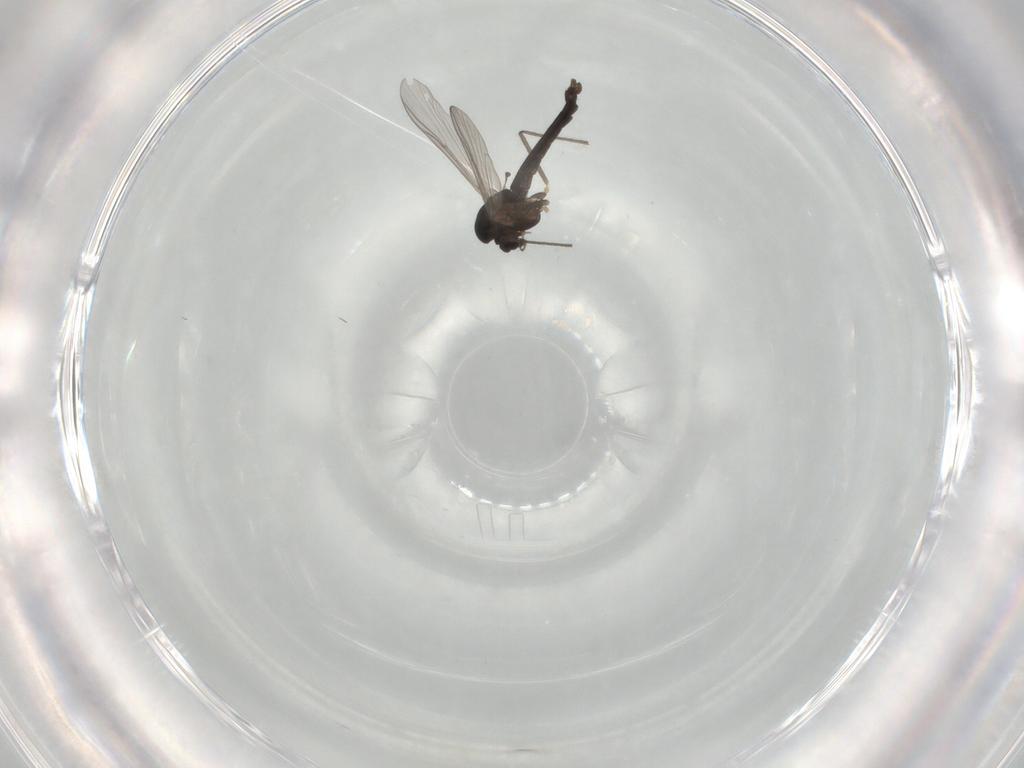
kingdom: Animalia
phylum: Arthropoda
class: Insecta
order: Diptera
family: Chironomidae
